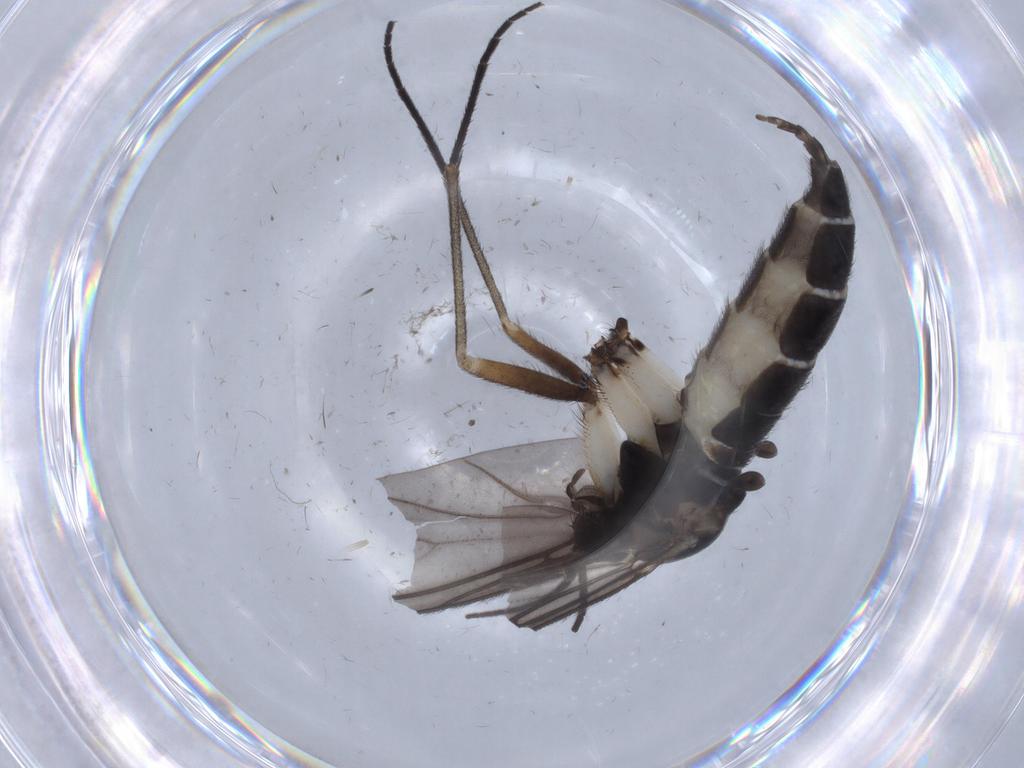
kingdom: Animalia
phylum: Arthropoda
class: Insecta
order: Diptera
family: Sciaridae
